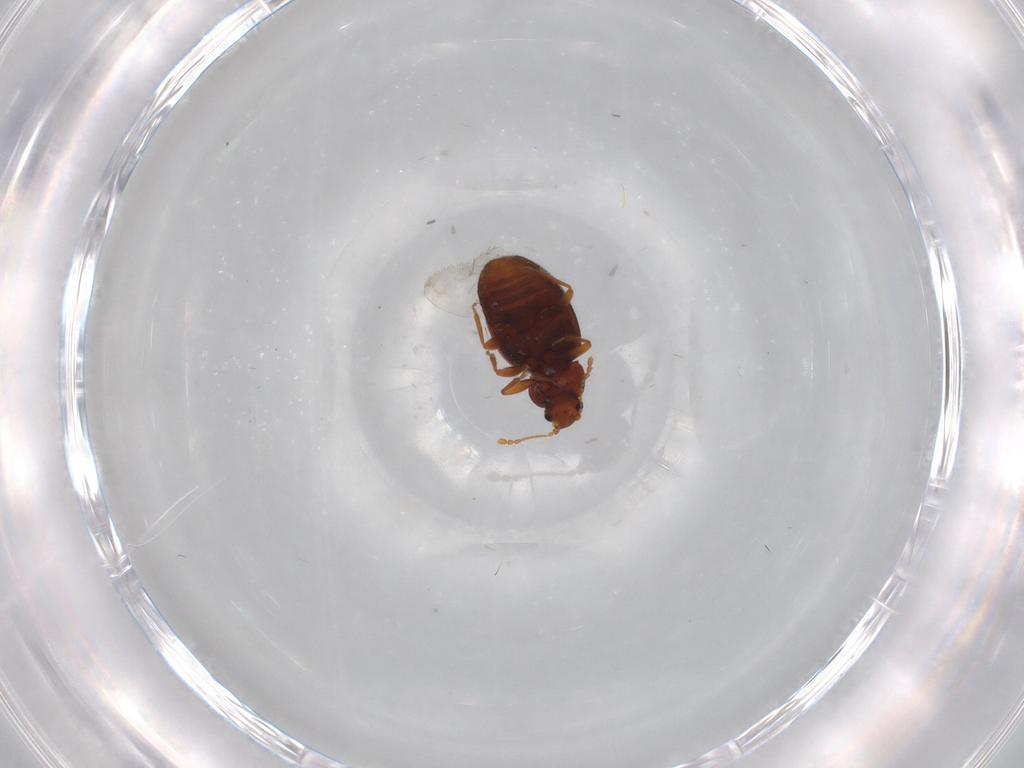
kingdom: Animalia
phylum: Arthropoda
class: Insecta
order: Coleoptera
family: Latridiidae
